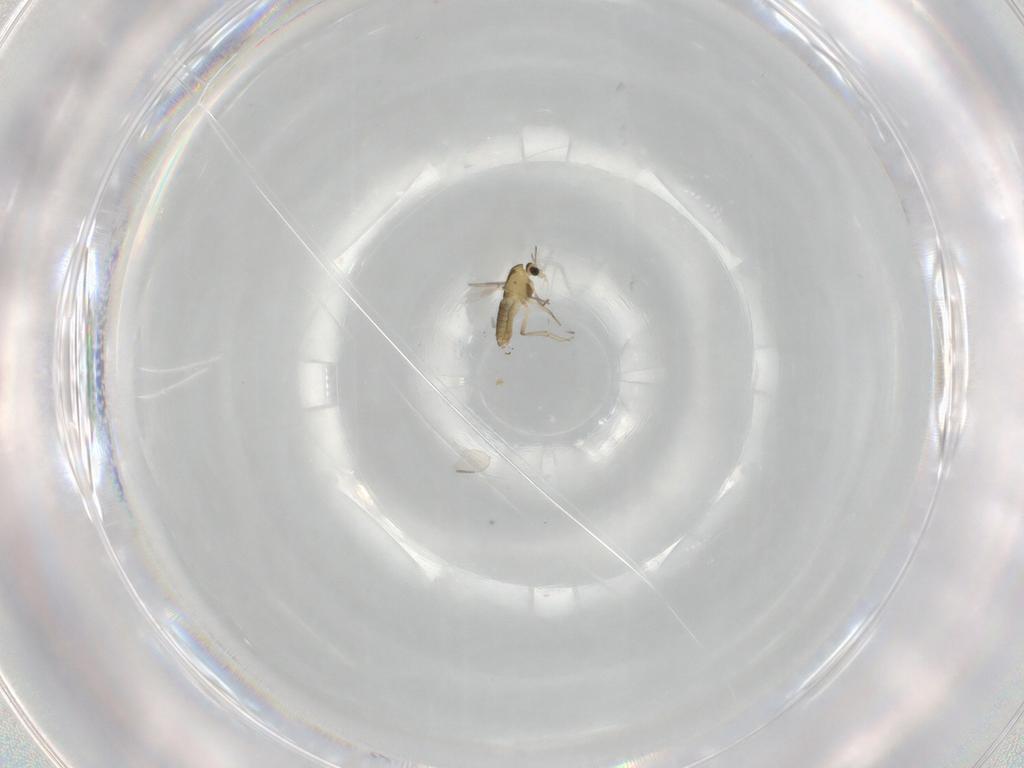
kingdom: Animalia
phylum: Arthropoda
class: Insecta
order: Diptera
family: Chironomidae
